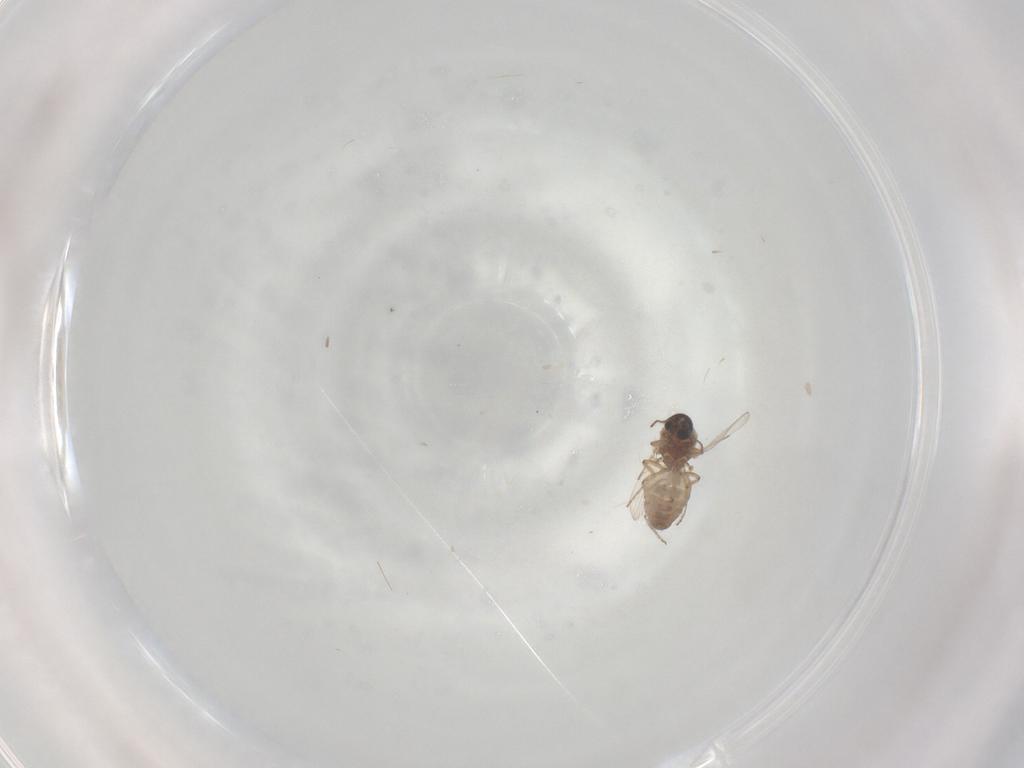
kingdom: Animalia
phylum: Arthropoda
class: Insecta
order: Diptera
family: Ceratopogonidae
